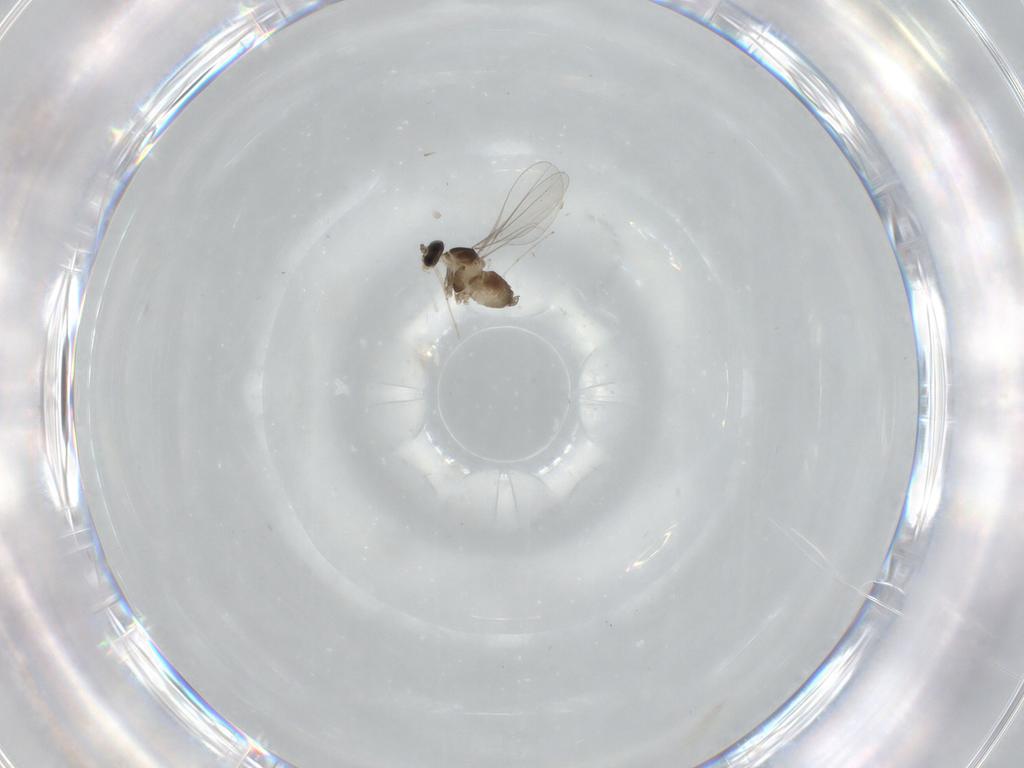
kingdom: Animalia
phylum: Arthropoda
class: Insecta
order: Diptera
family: Cecidomyiidae
